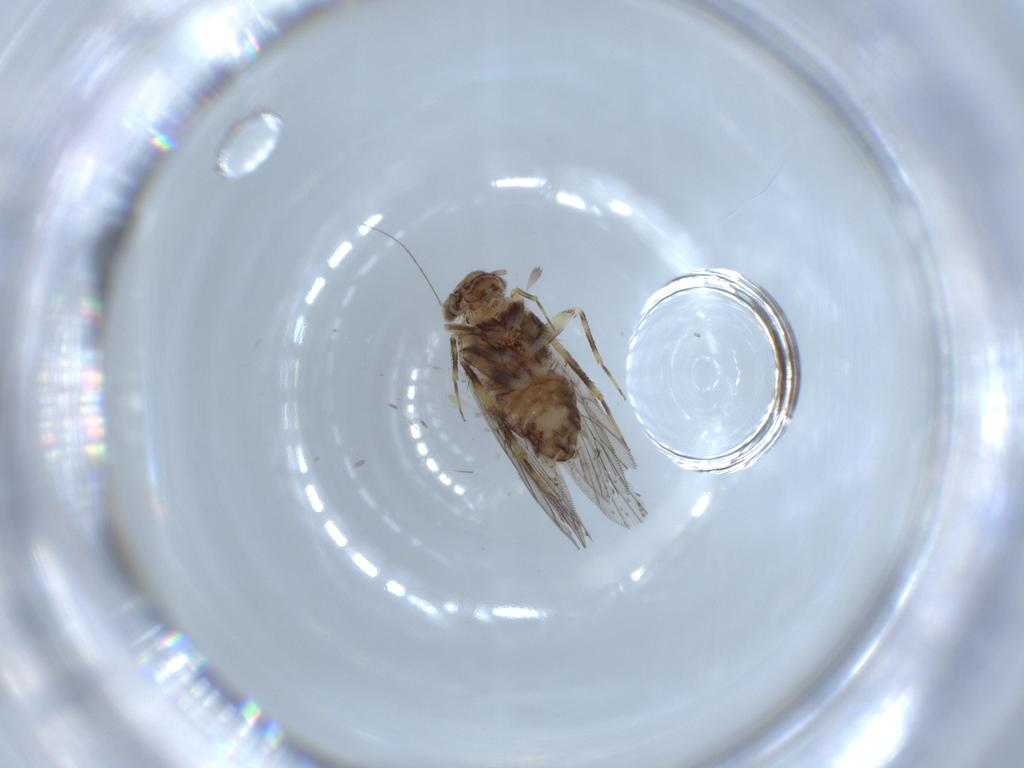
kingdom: Animalia
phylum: Arthropoda
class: Insecta
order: Psocodea
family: Lepidopsocidae
